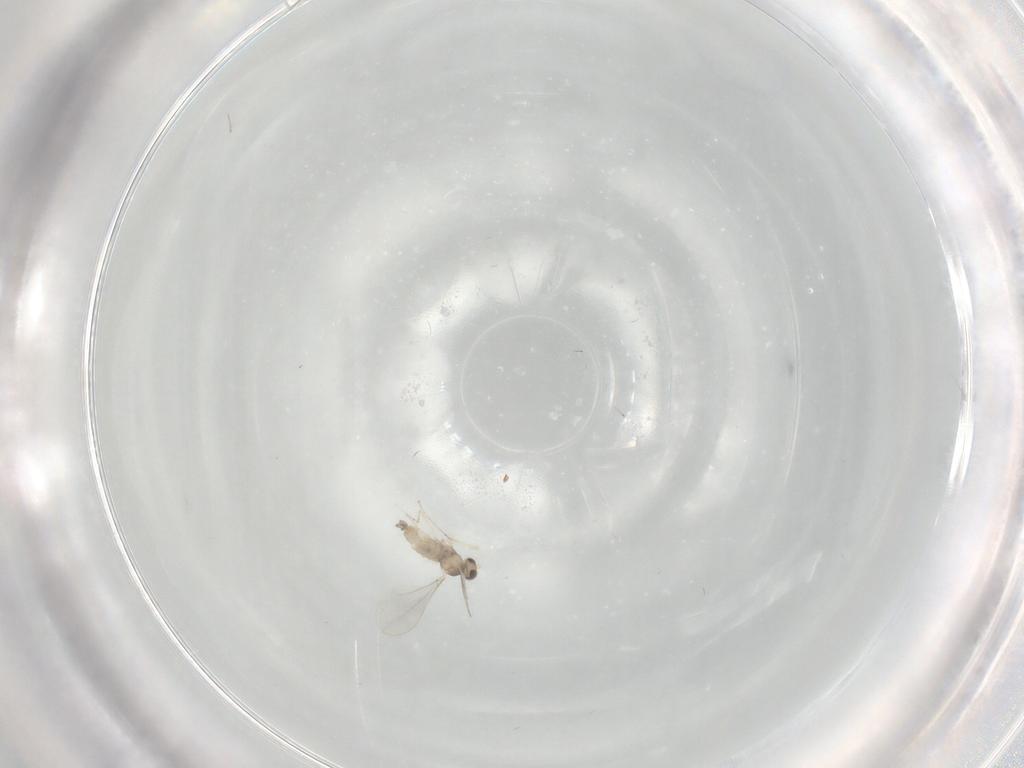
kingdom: Animalia
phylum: Arthropoda
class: Insecta
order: Diptera
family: Cecidomyiidae
